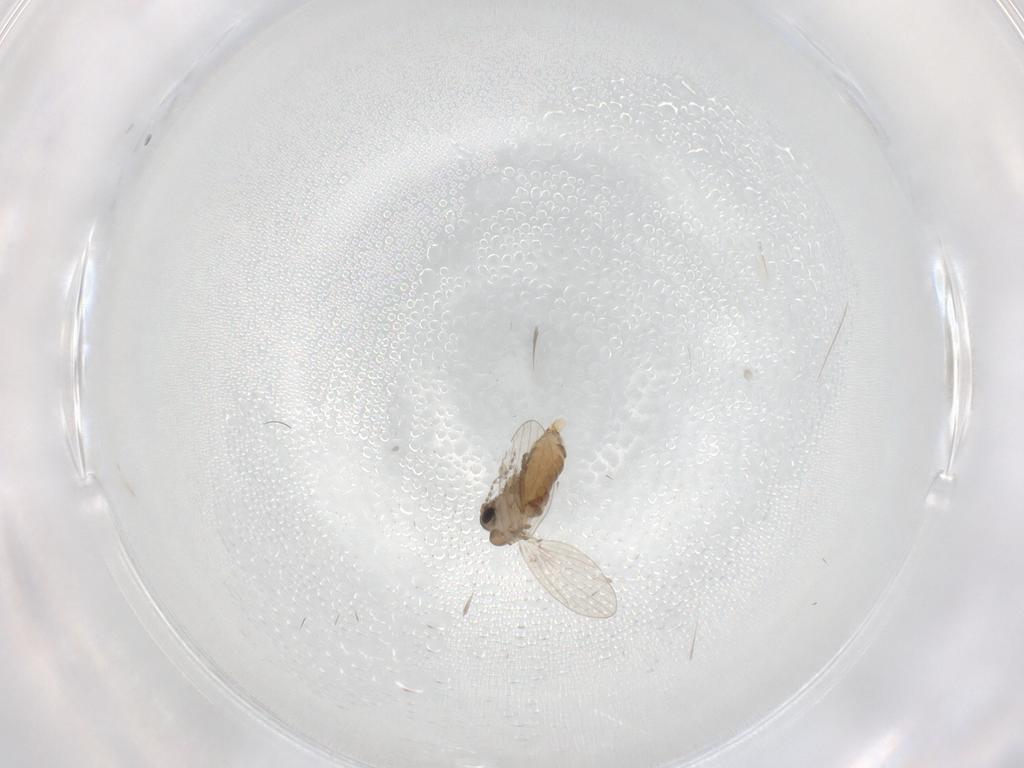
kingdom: Animalia
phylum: Arthropoda
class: Insecta
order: Diptera
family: Psychodidae
